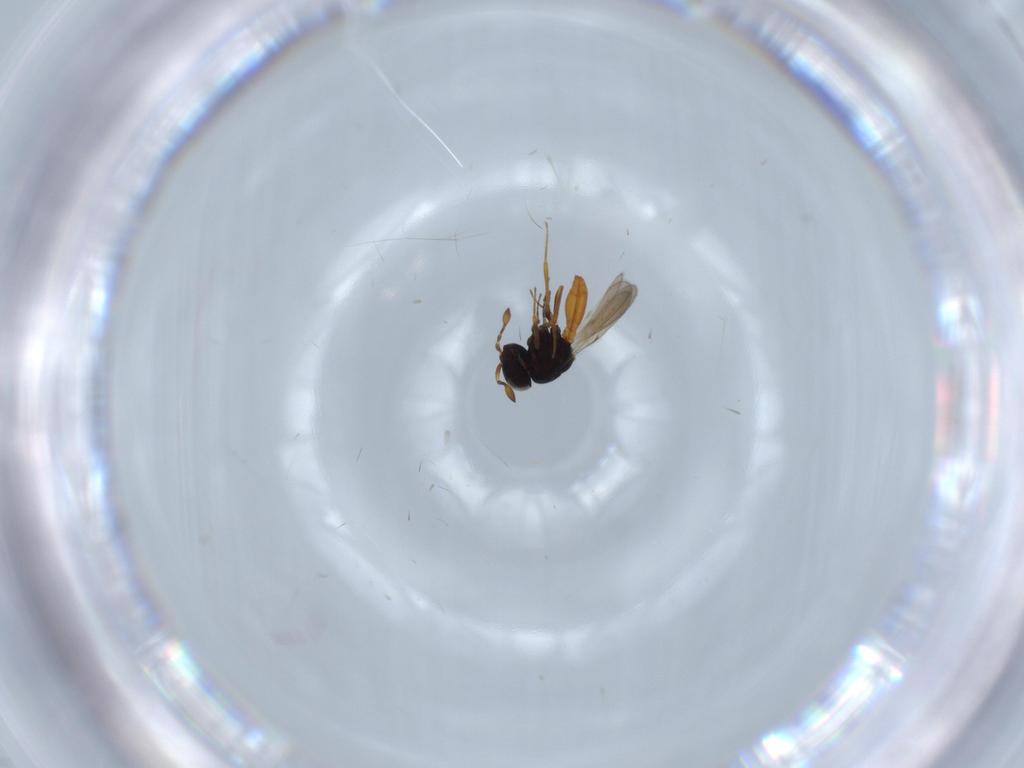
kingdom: Animalia
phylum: Arthropoda
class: Insecta
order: Hymenoptera
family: Scelionidae
